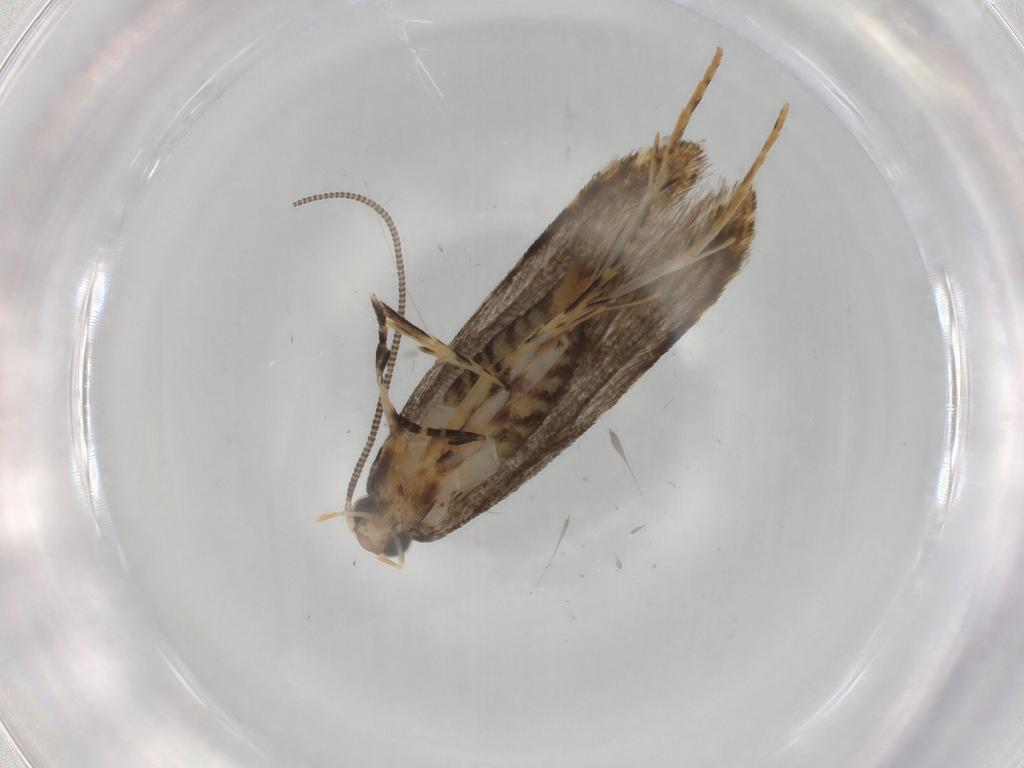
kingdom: Animalia
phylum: Arthropoda
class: Insecta
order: Lepidoptera
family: Tineidae
